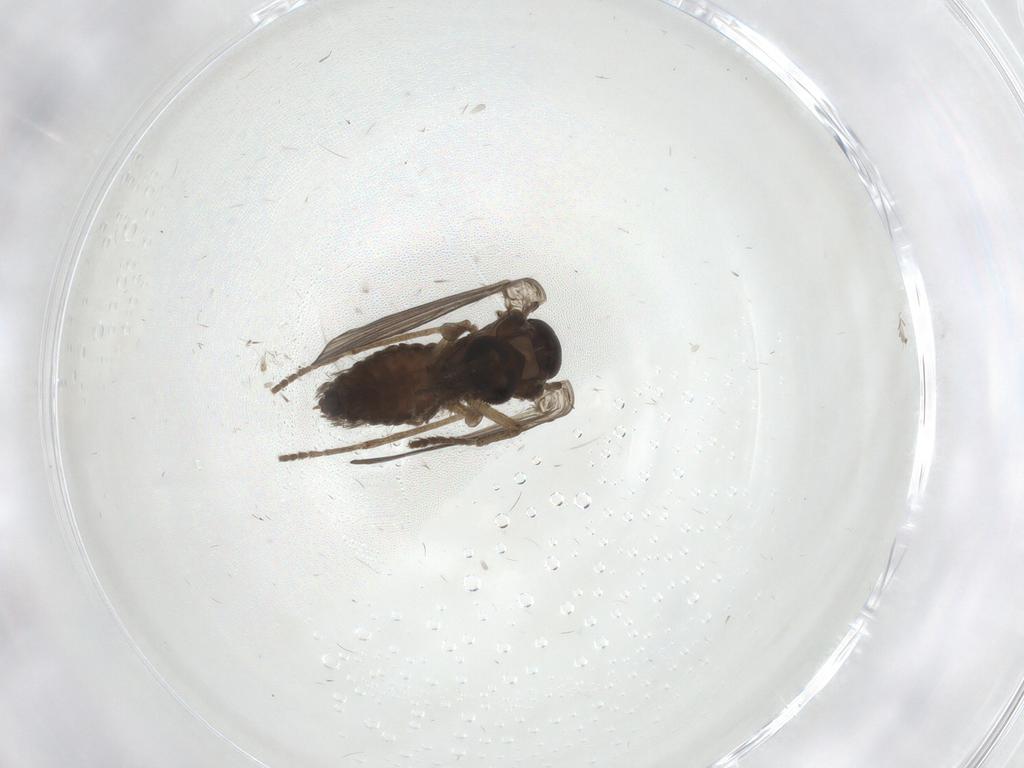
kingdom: Animalia
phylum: Arthropoda
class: Insecta
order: Diptera
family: Psychodidae
